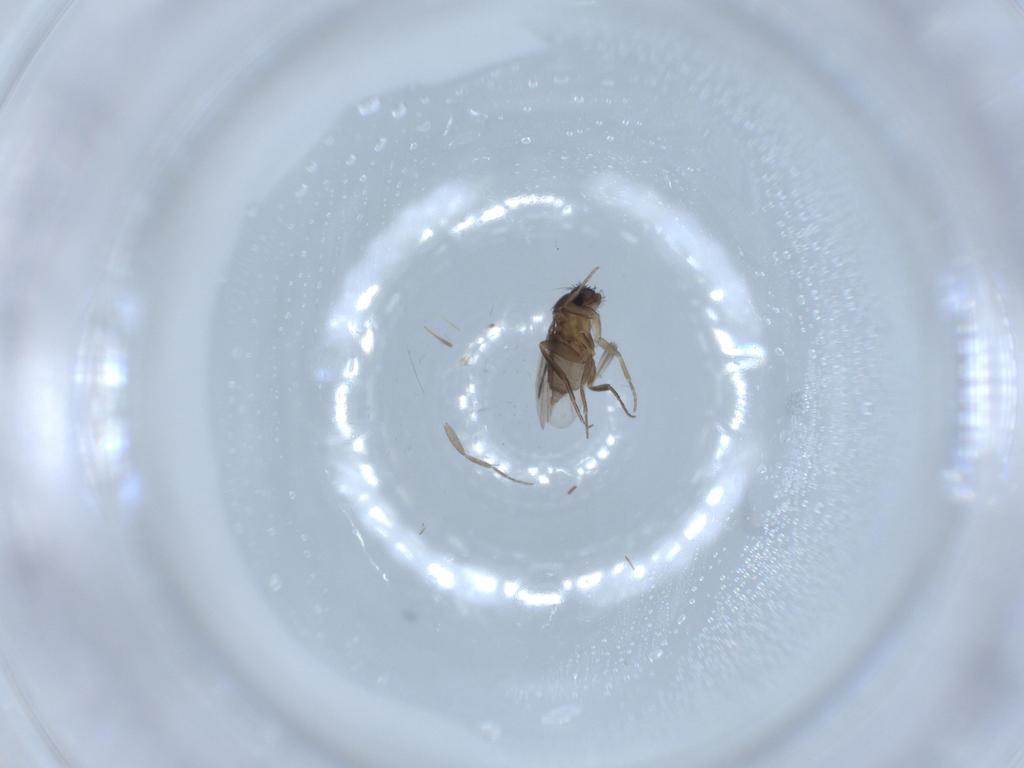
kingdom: Animalia
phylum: Arthropoda
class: Insecta
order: Diptera
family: Phoridae
